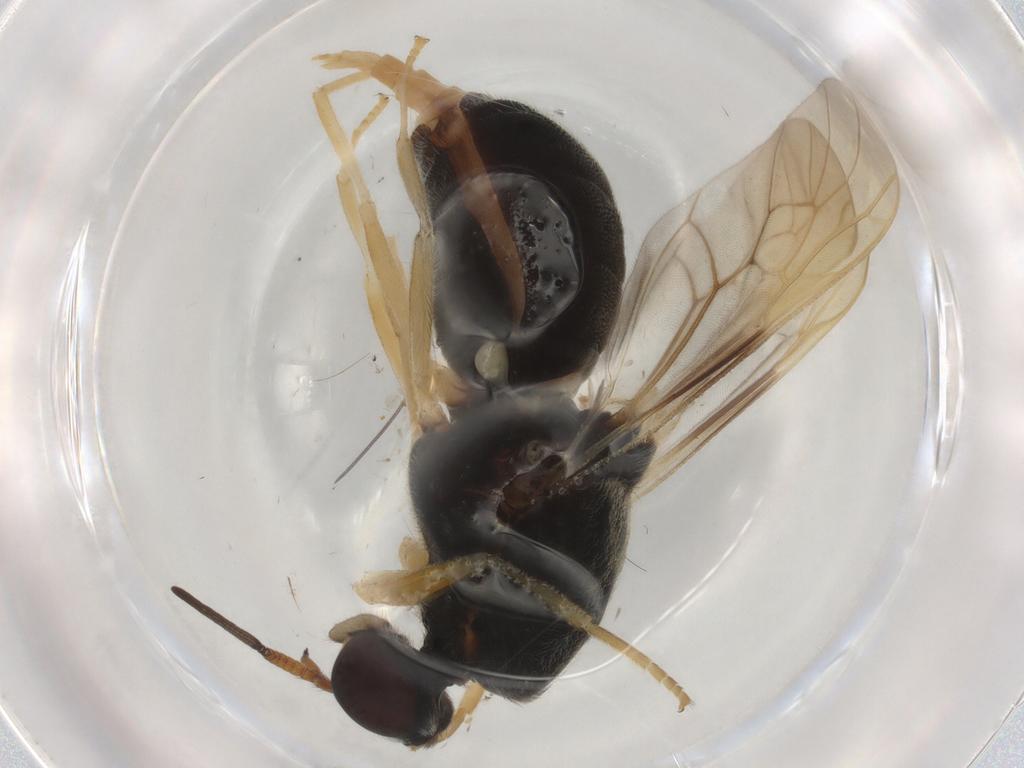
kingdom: Animalia
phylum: Arthropoda
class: Insecta
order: Diptera
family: Stratiomyidae
